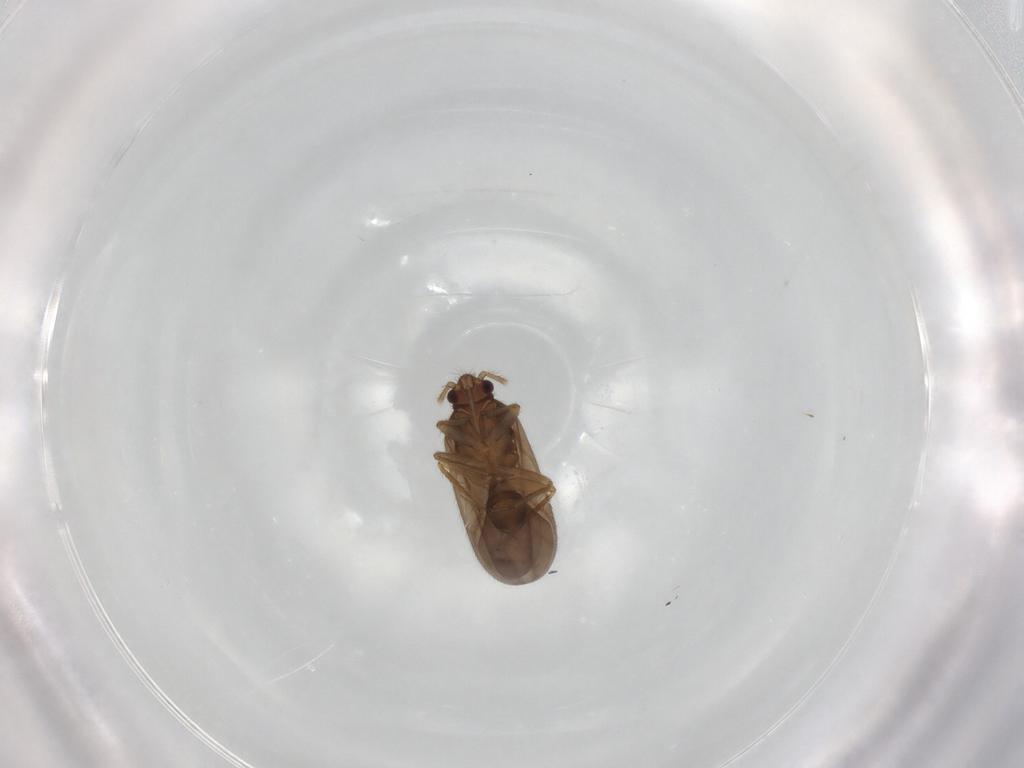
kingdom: Animalia
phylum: Arthropoda
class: Insecta
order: Hemiptera
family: Ceratocombidae
